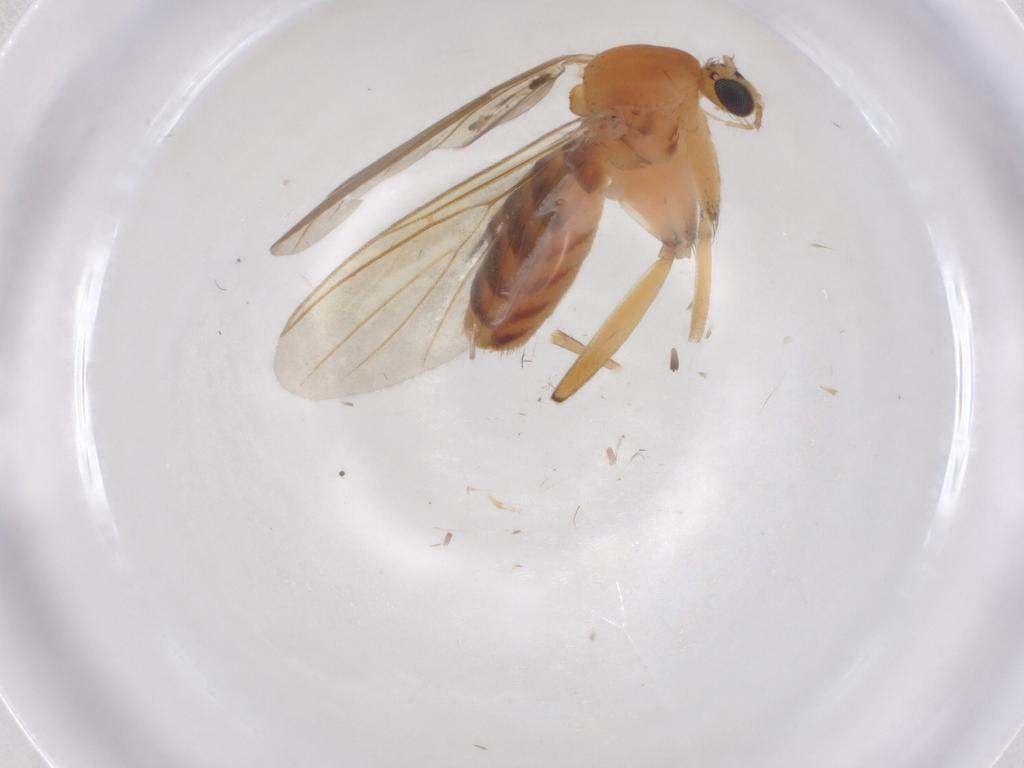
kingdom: Animalia
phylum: Arthropoda
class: Insecta
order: Diptera
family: Mycetophilidae
